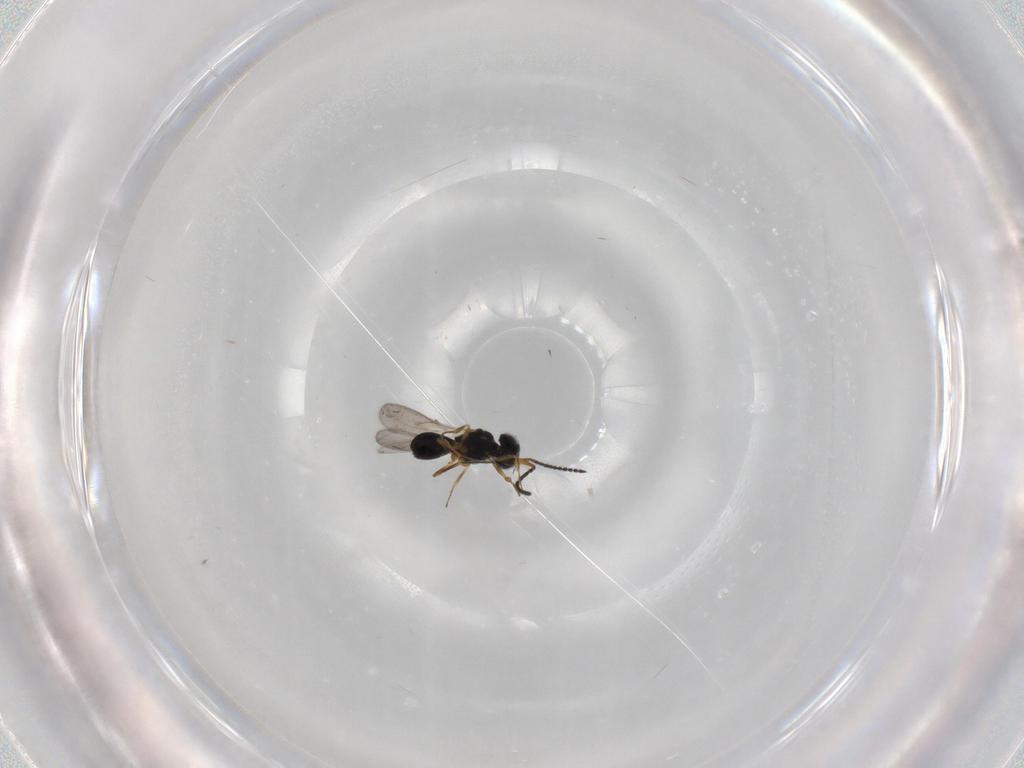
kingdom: Animalia
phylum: Arthropoda
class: Insecta
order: Hymenoptera
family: Scelionidae
